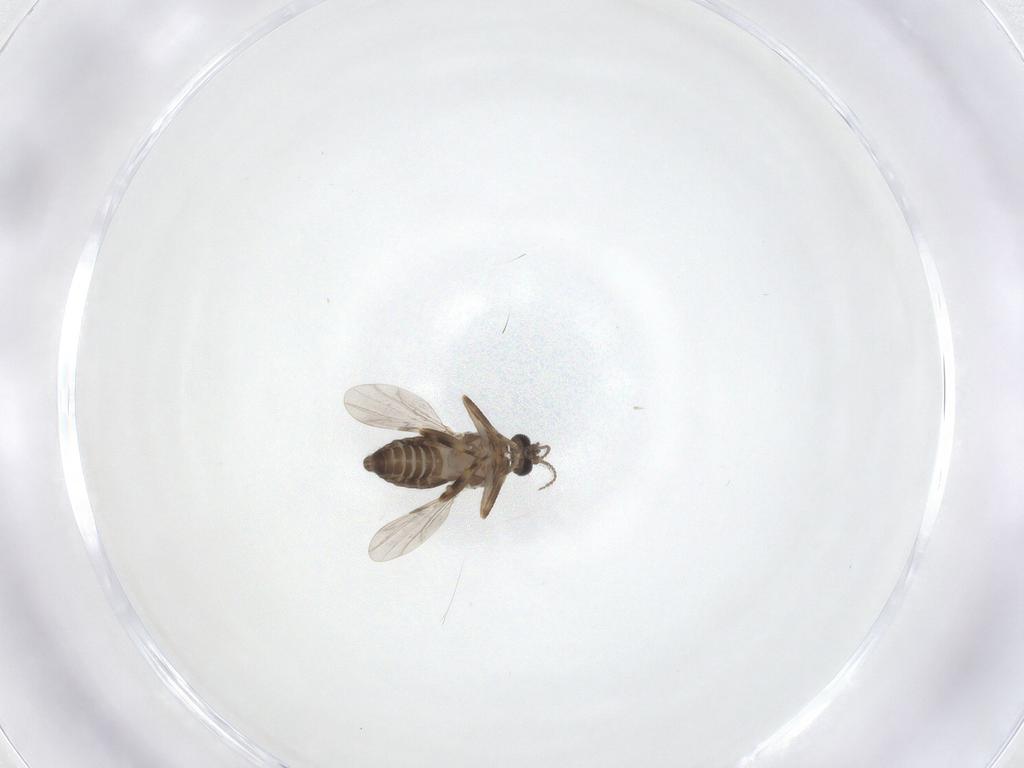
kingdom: Animalia
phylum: Arthropoda
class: Insecta
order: Diptera
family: Ceratopogonidae
